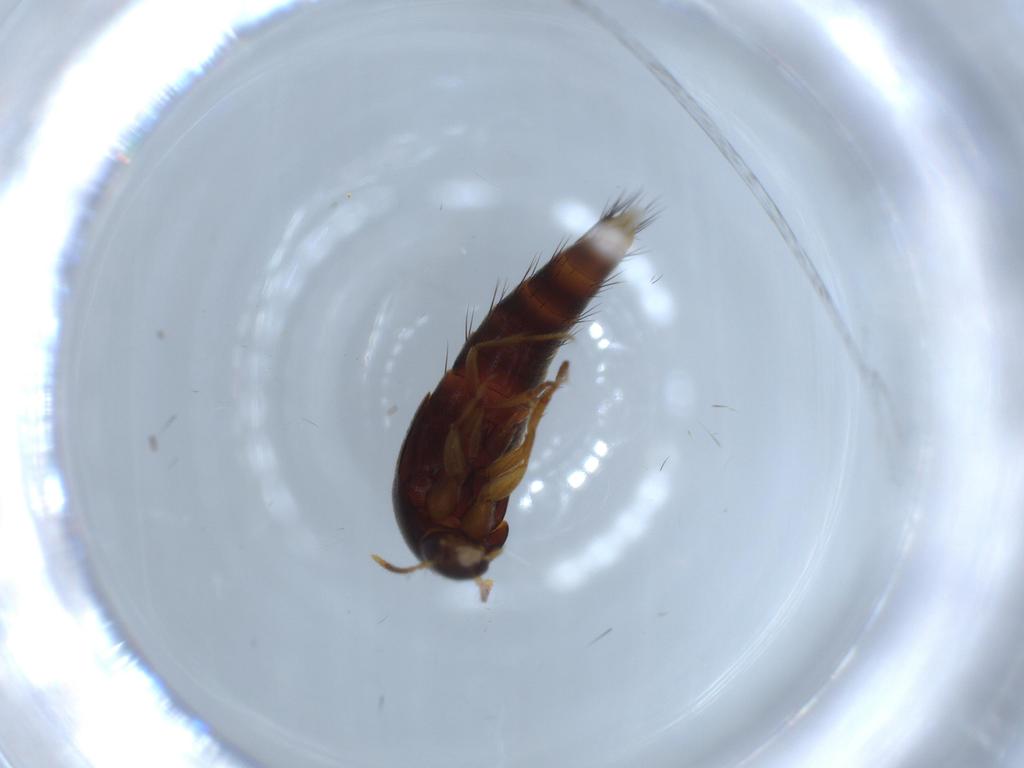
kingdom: Animalia
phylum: Arthropoda
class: Insecta
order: Coleoptera
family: Staphylinidae
